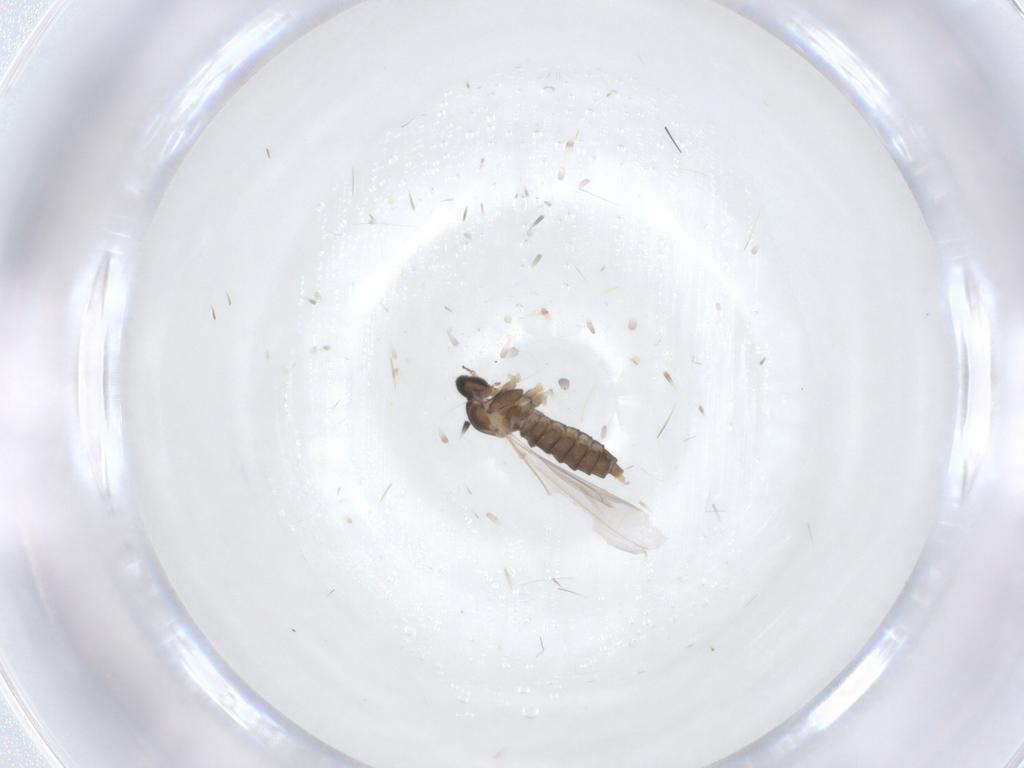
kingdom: Animalia
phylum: Arthropoda
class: Insecta
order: Diptera
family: Cecidomyiidae
